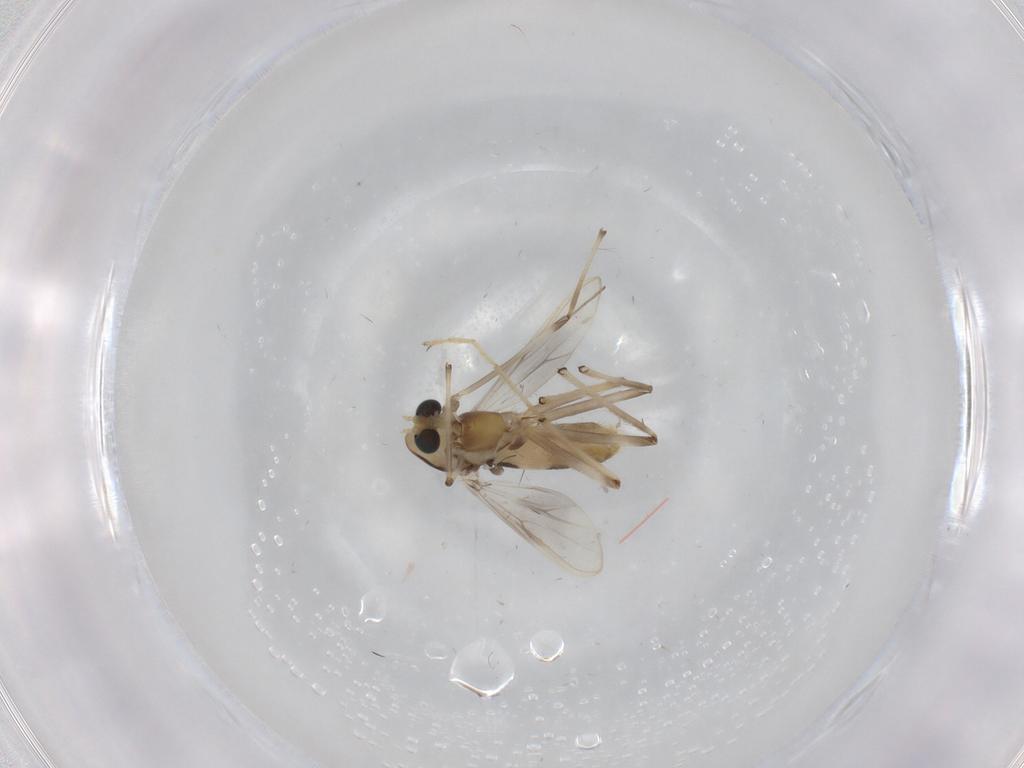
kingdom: Animalia
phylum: Arthropoda
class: Insecta
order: Diptera
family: Chironomidae
